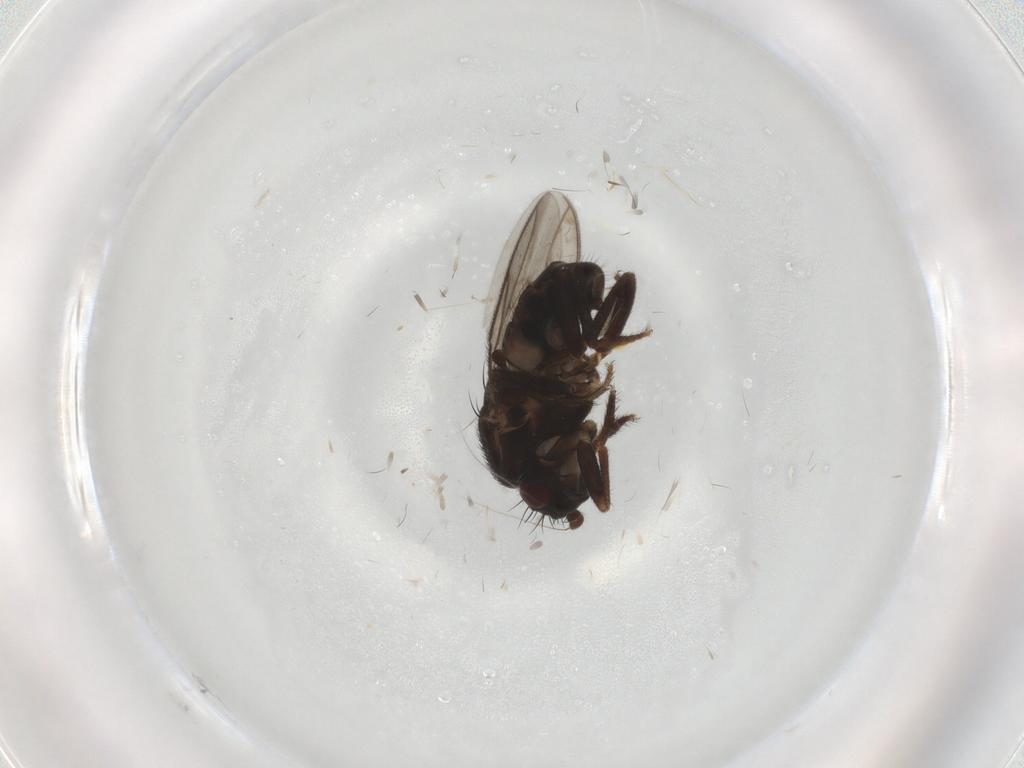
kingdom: Animalia
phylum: Arthropoda
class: Insecta
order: Diptera
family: Sphaeroceridae
